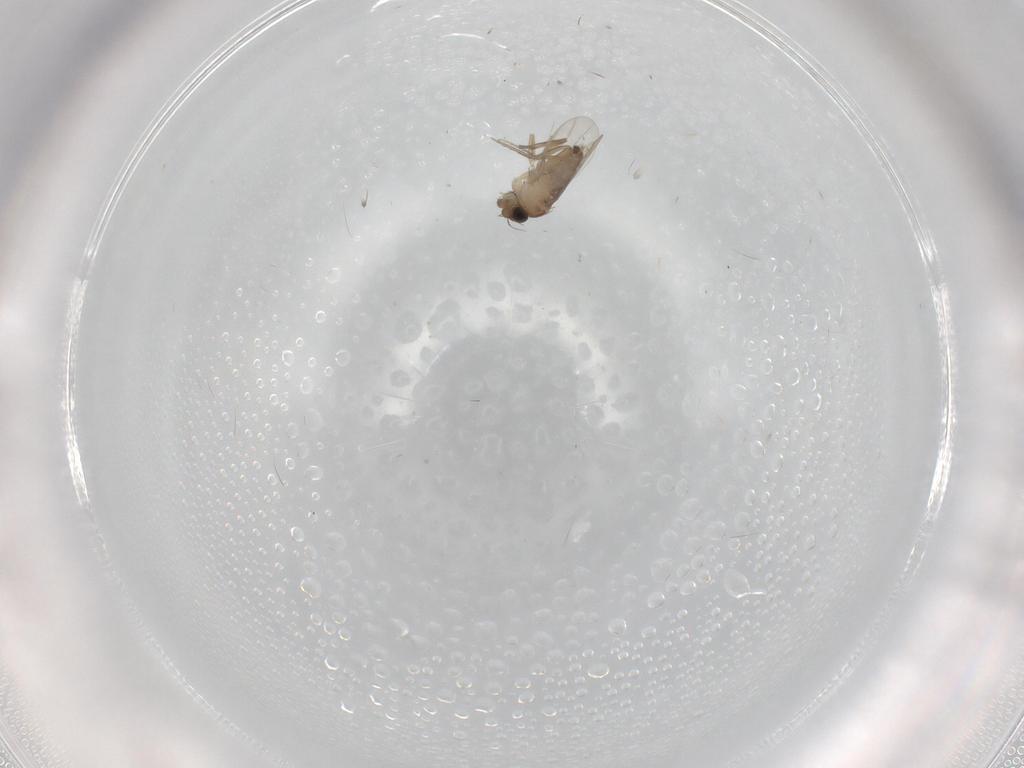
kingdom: Animalia
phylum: Arthropoda
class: Insecta
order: Diptera
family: Phoridae
